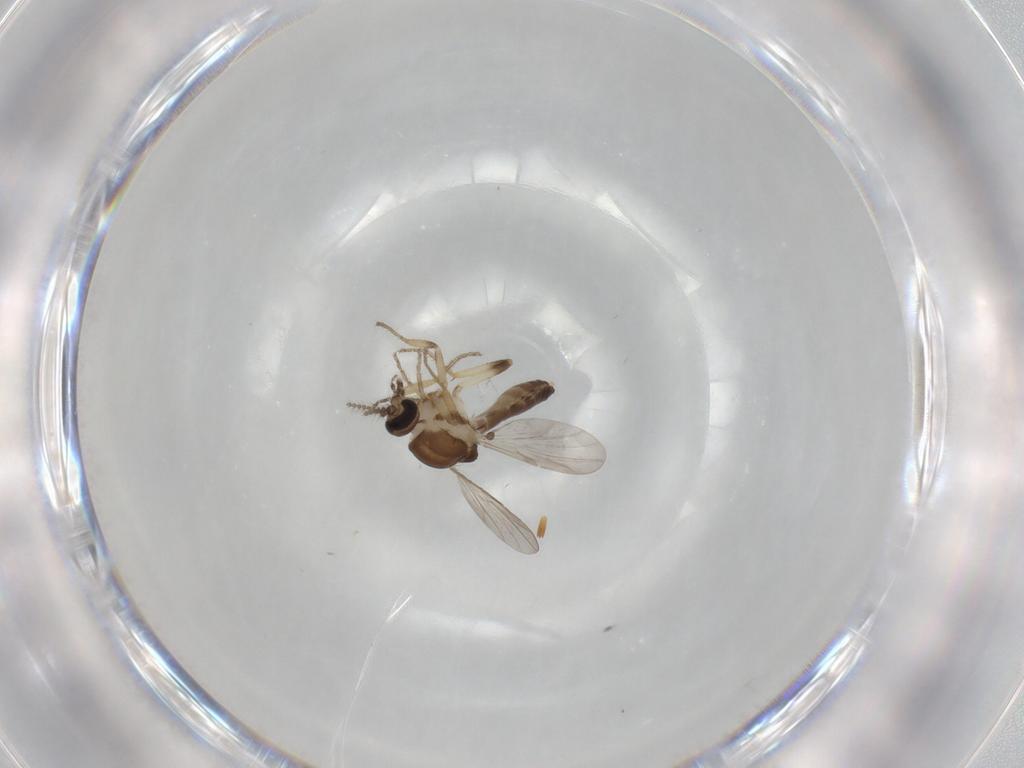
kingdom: Animalia
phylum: Arthropoda
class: Insecta
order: Diptera
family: Ceratopogonidae
